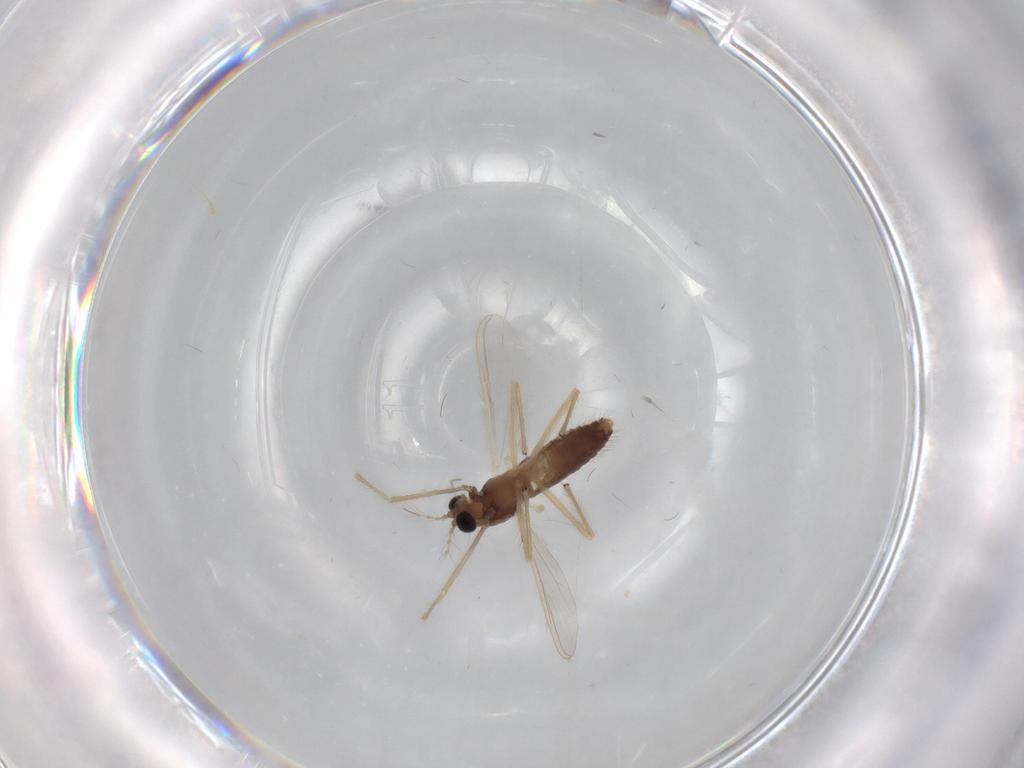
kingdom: Animalia
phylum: Arthropoda
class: Insecta
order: Diptera
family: Chironomidae
